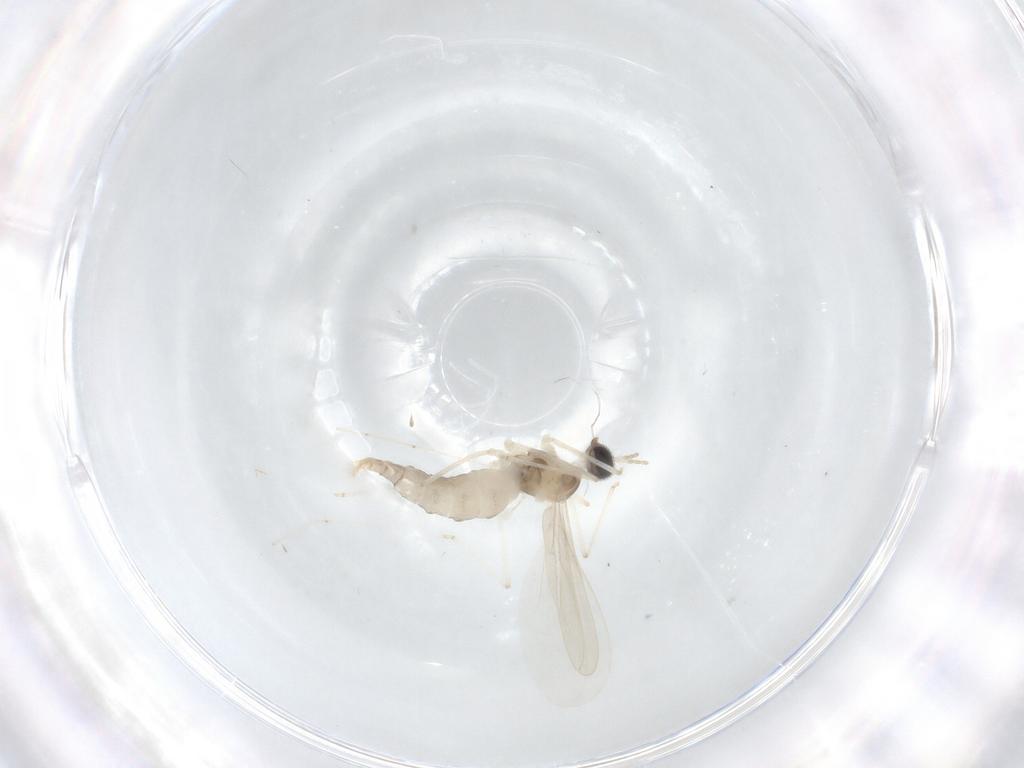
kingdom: Animalia
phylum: Arthropoda
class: Insecta
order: Diptera
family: Cecidomyiidae
